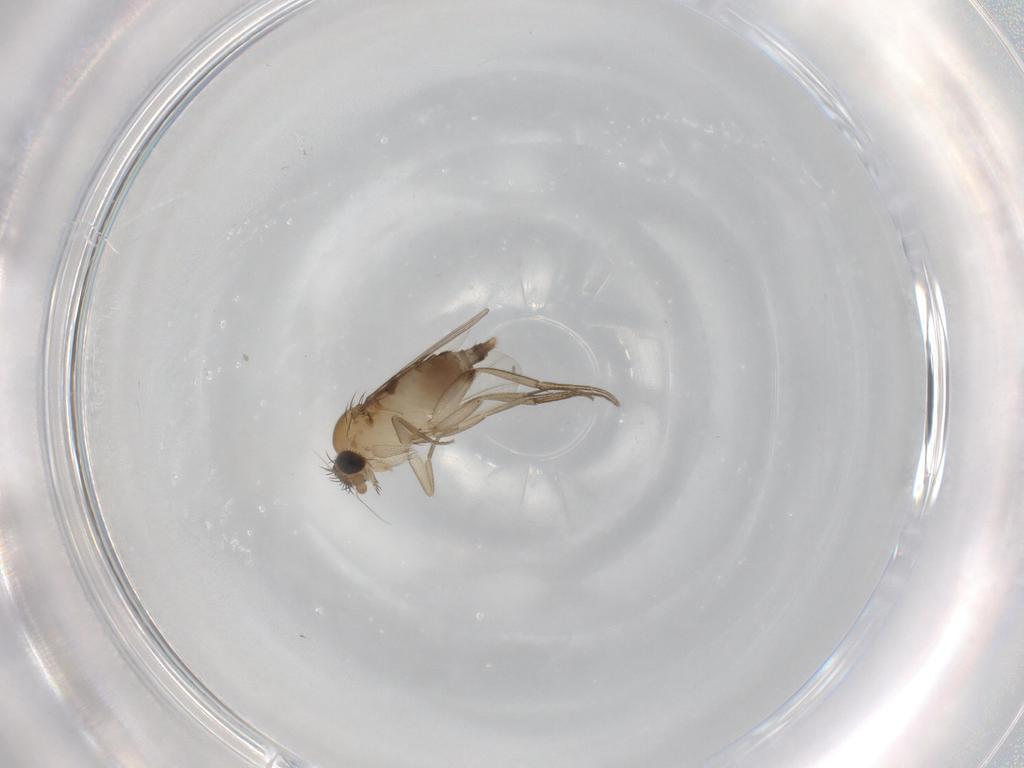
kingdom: Animalia
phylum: Arthropoda
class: Insecta
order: Diptera
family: Phoridae
